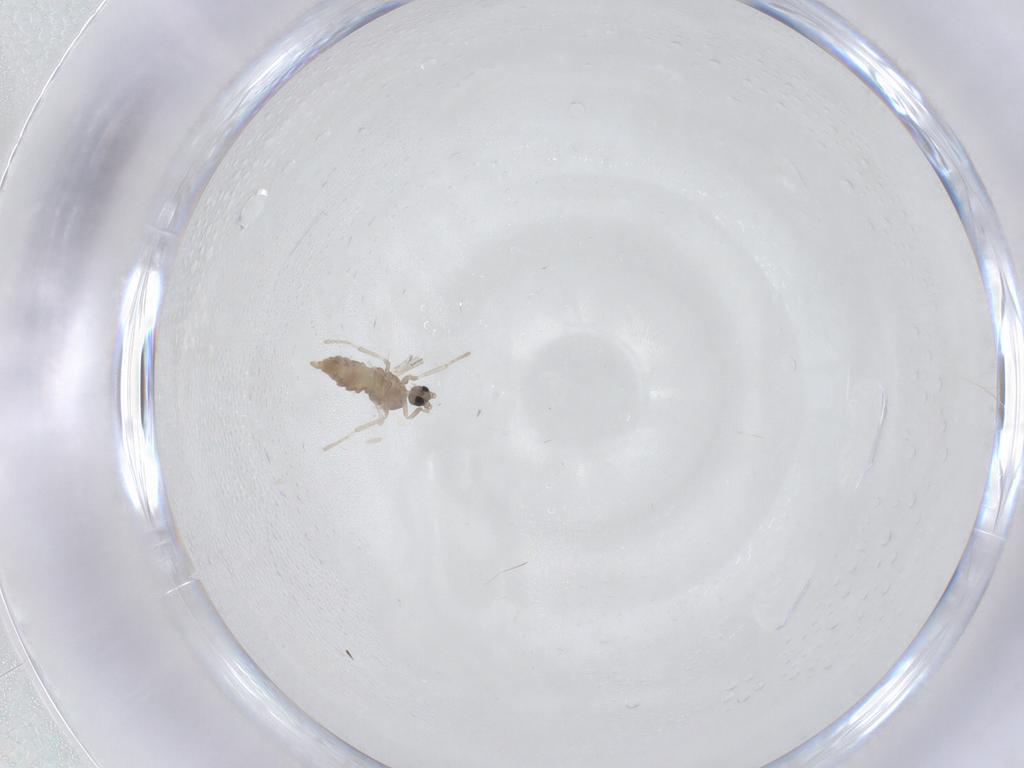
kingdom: Animalia
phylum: Arthropoda
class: Insecta
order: Diptera
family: Cecidomyiidae
